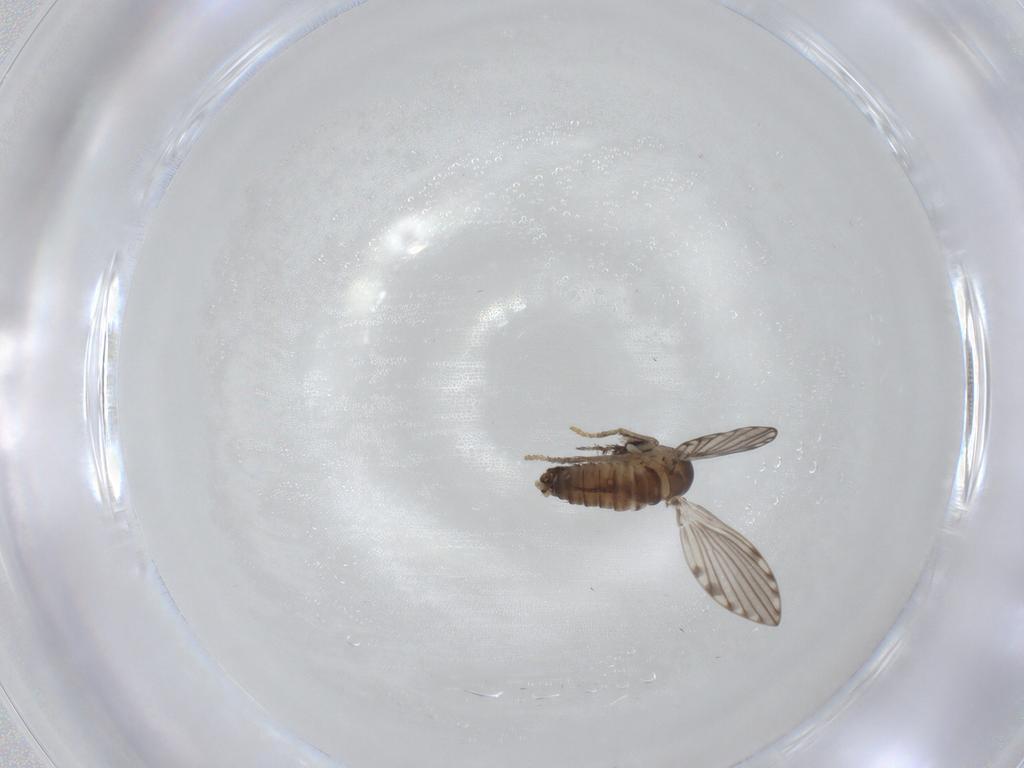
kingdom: Animalia
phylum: Arthropoda
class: Insecta
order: Diptera
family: Psychodidae
